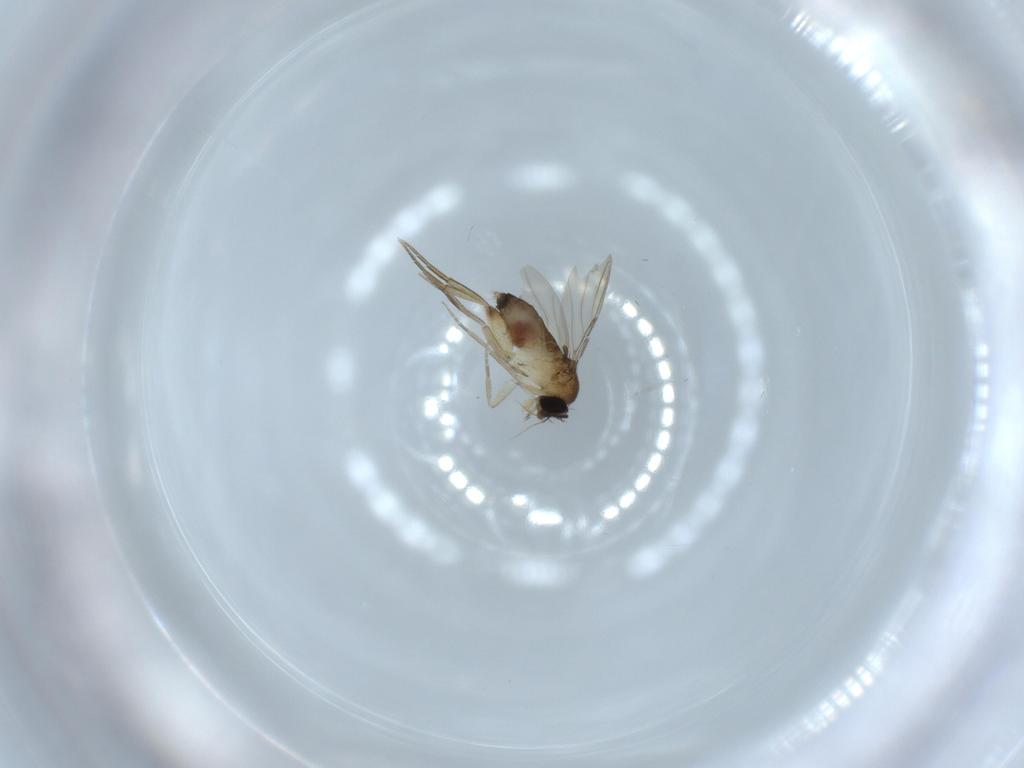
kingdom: Animalia
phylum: Arthropoda
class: Insecta
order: Diptera
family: Phoridae
